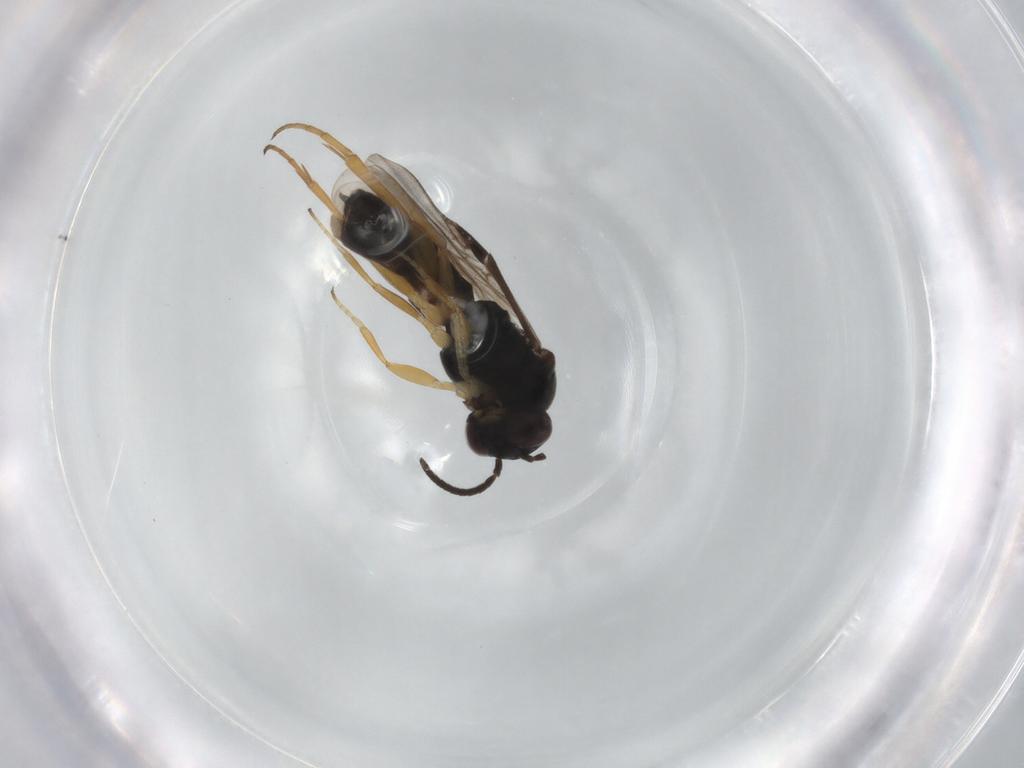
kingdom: Animalia
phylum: Arthropoda
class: Insecta
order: Hymenoptera
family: Braconidae
